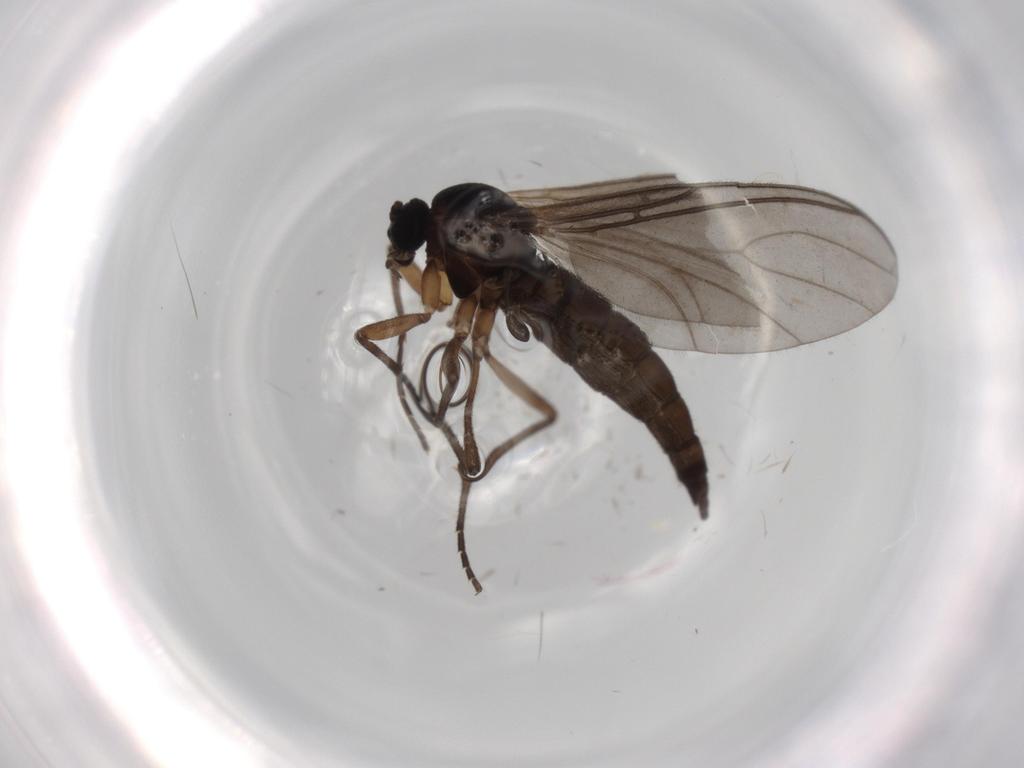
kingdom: Animalia
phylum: Arthropoda
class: Insecta
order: Diptera
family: Sciaridae
